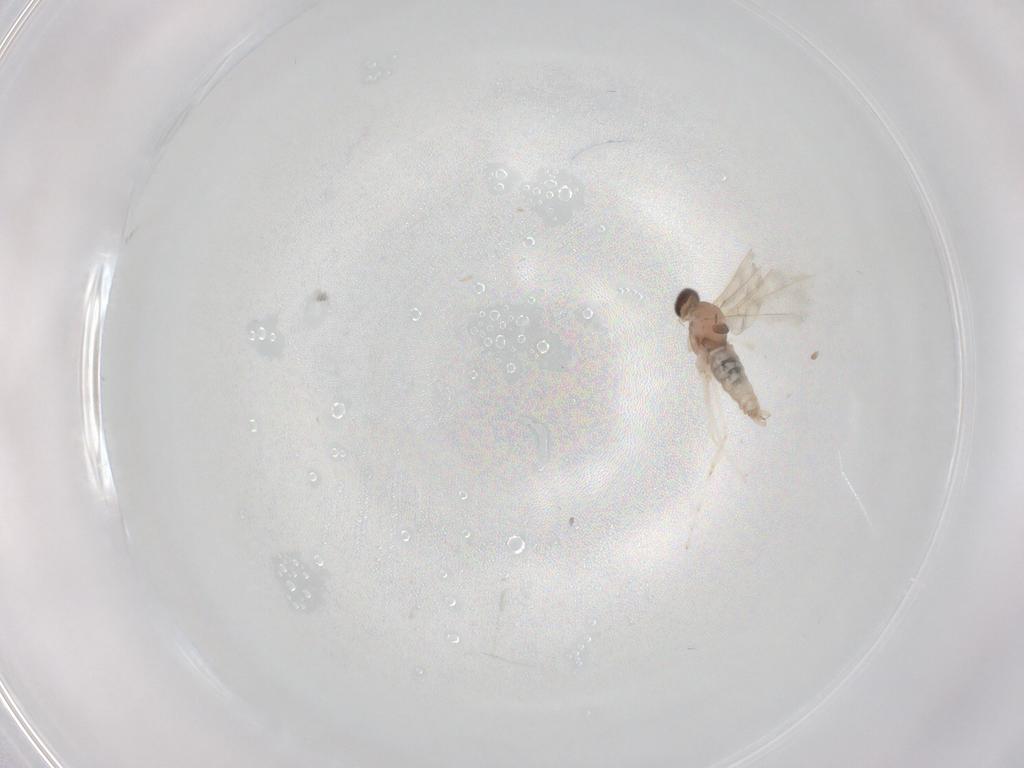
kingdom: Animalia
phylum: Arthropoda
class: Insecta
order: Diptera
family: Cecidomyiidae
